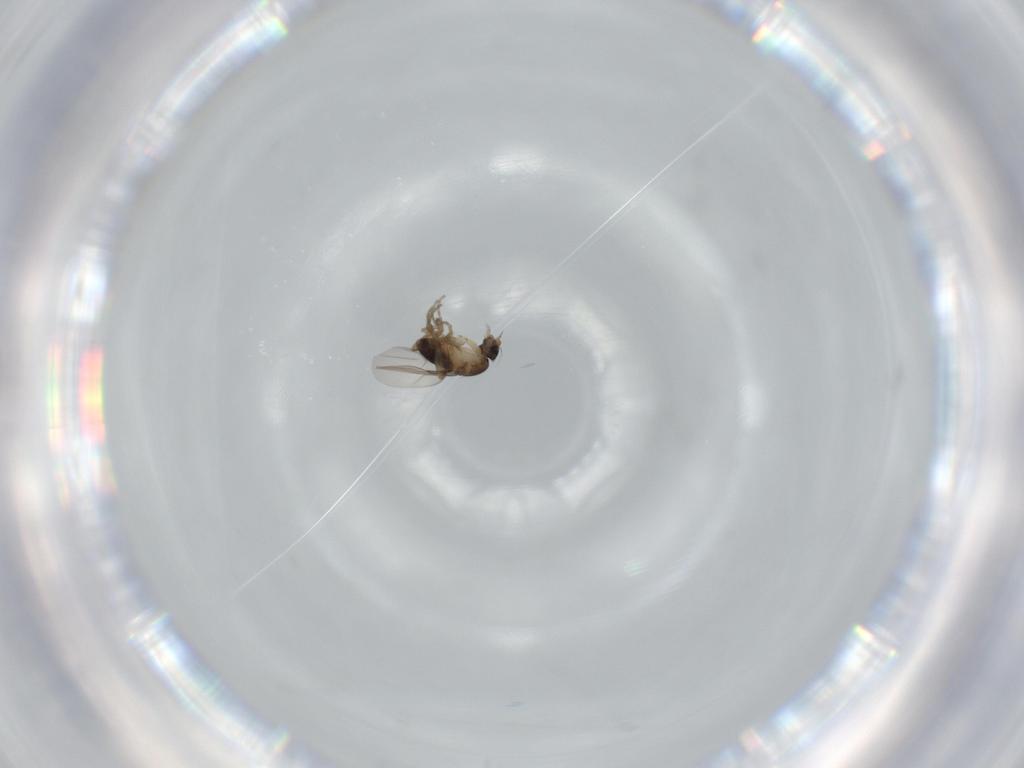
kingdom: Animalia
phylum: Arthropoda
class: Insecta
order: Diptera
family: Phoridae
